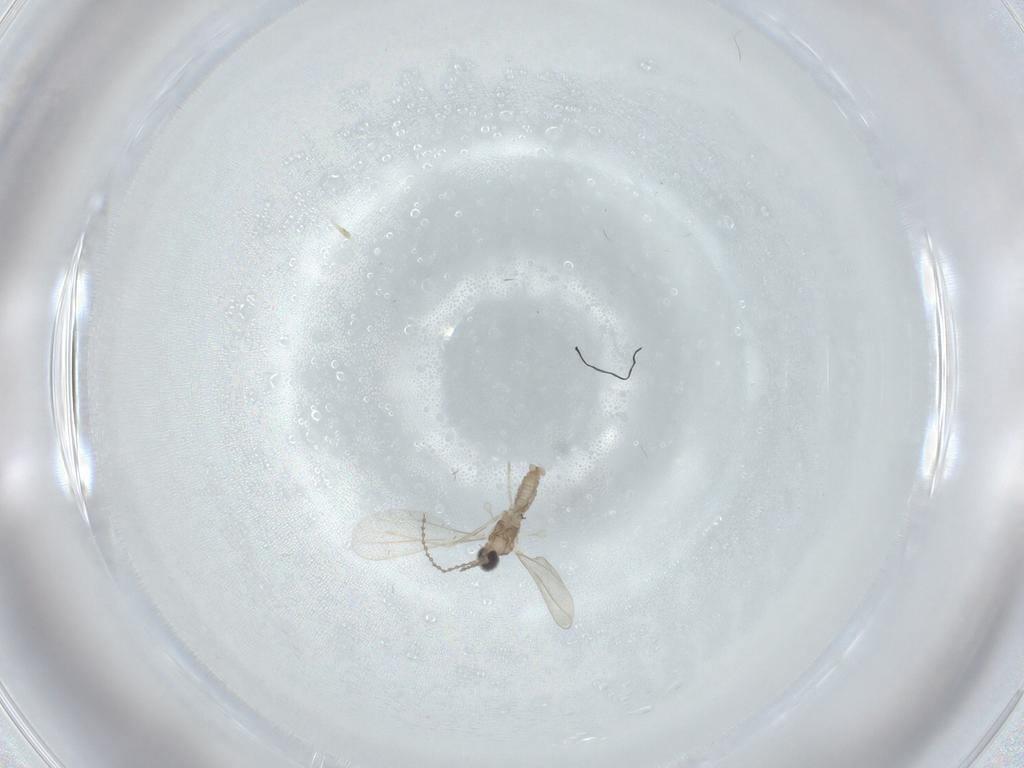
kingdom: Animalia
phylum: Arthropoda
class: Insecta
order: Diptera
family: Cecidomyiidae
